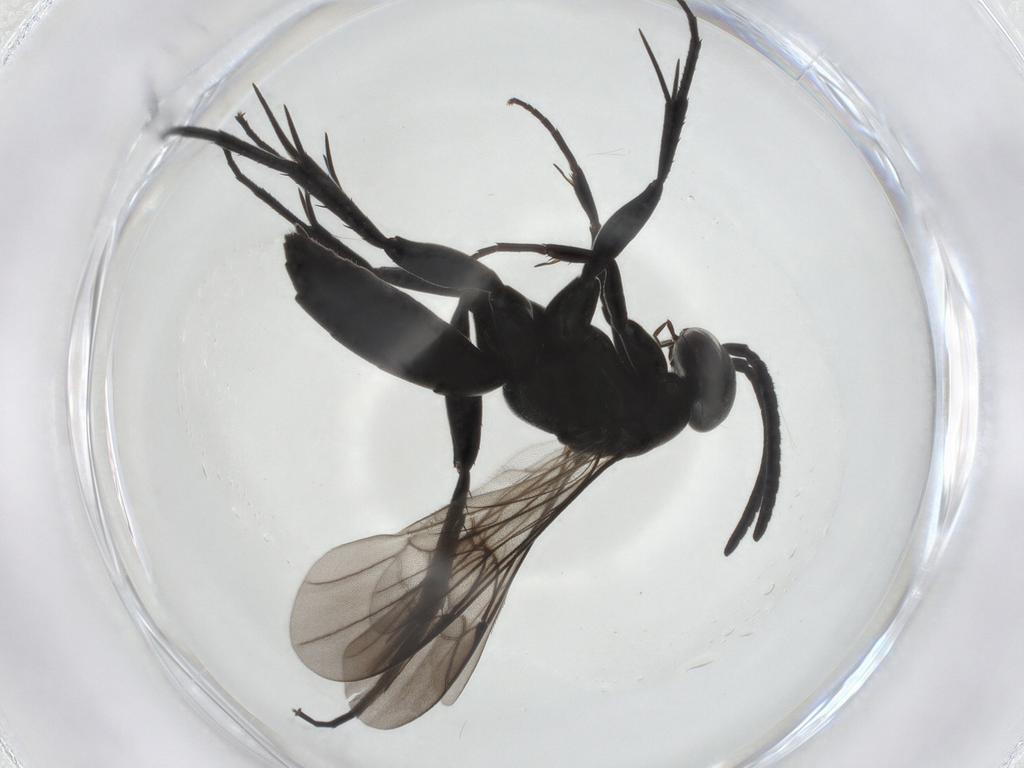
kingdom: Animalia
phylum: Arthropoda
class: Insecta
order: Hymenoptera
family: Pompilidae
